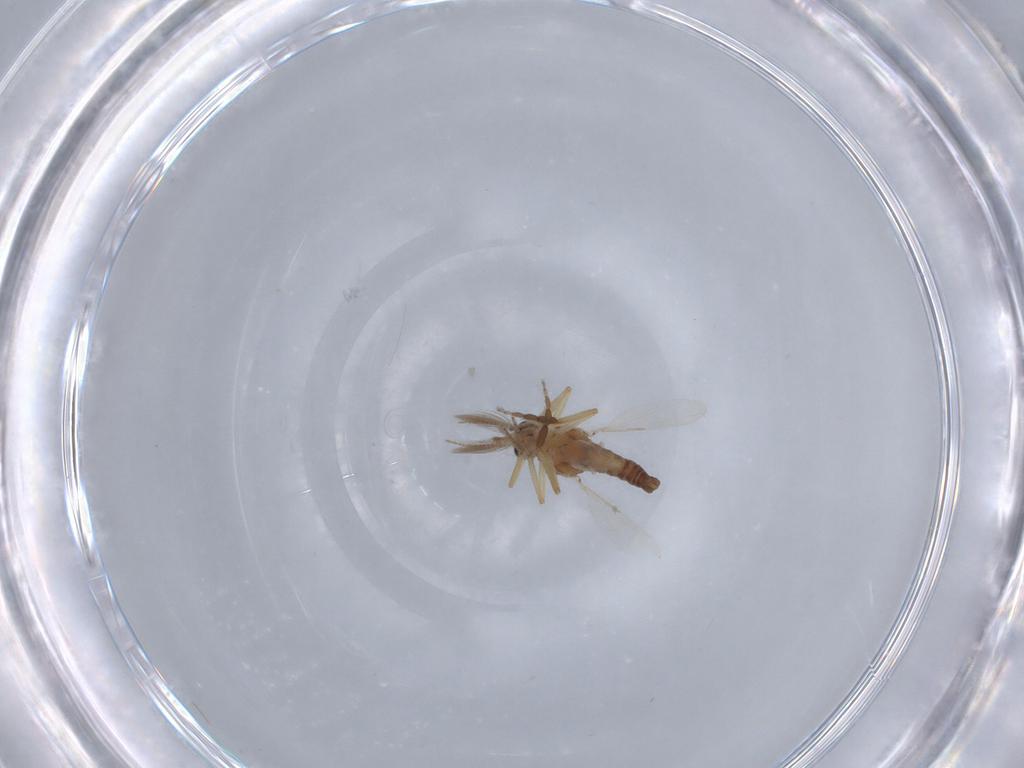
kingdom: Animalia
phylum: Arthropoda
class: Insecta
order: Diptera
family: Ceratopogonidae
